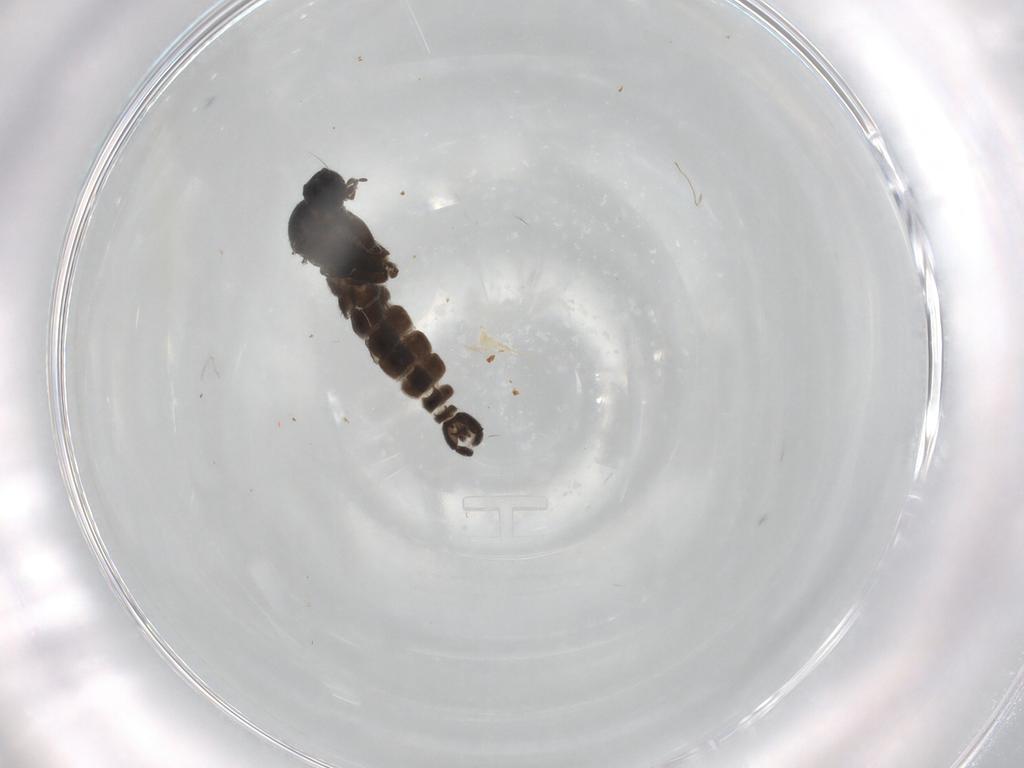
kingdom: Animalia
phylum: Arthropoda
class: Insecta
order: Diptera
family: Sciaridae
